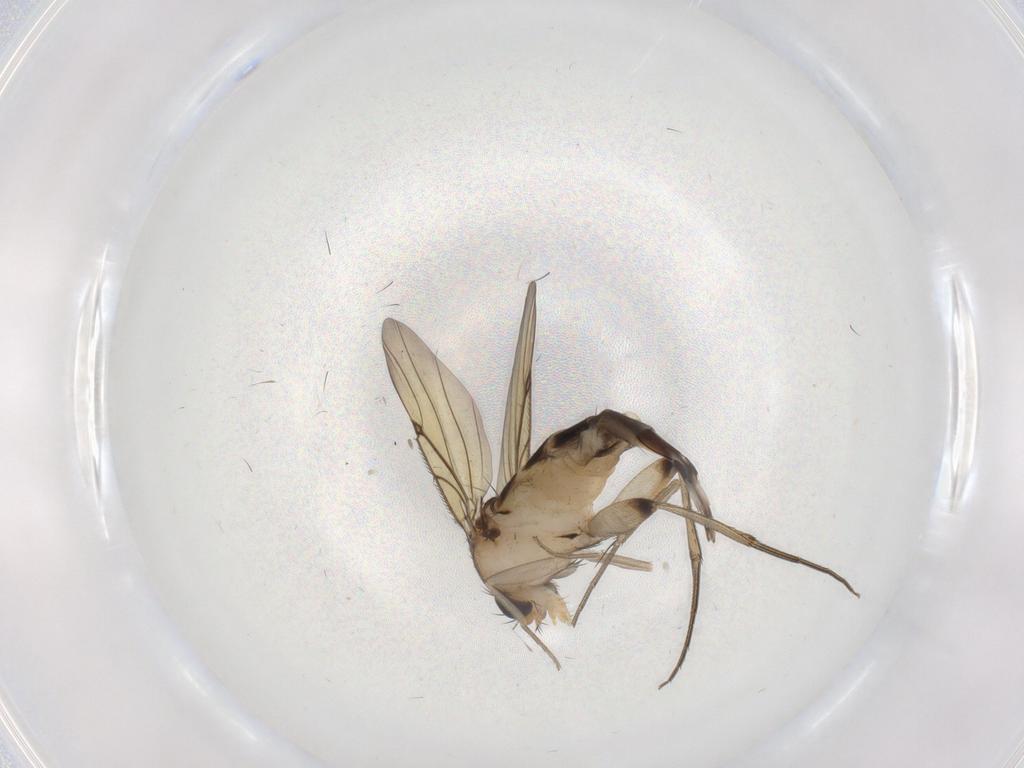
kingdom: Animalia
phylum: Arthropoda
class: Insecta
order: Diptera
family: Phoridae
